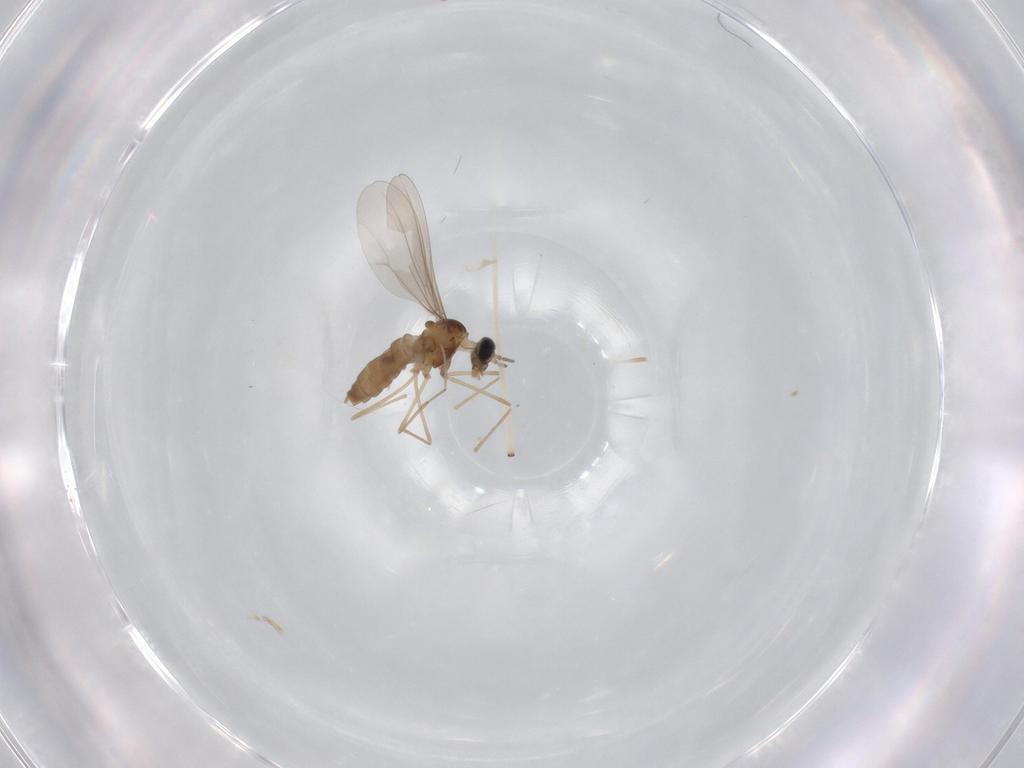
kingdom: Animalia
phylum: Arthropoda
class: Insecta
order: Diptera
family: Cecidomyiidae
